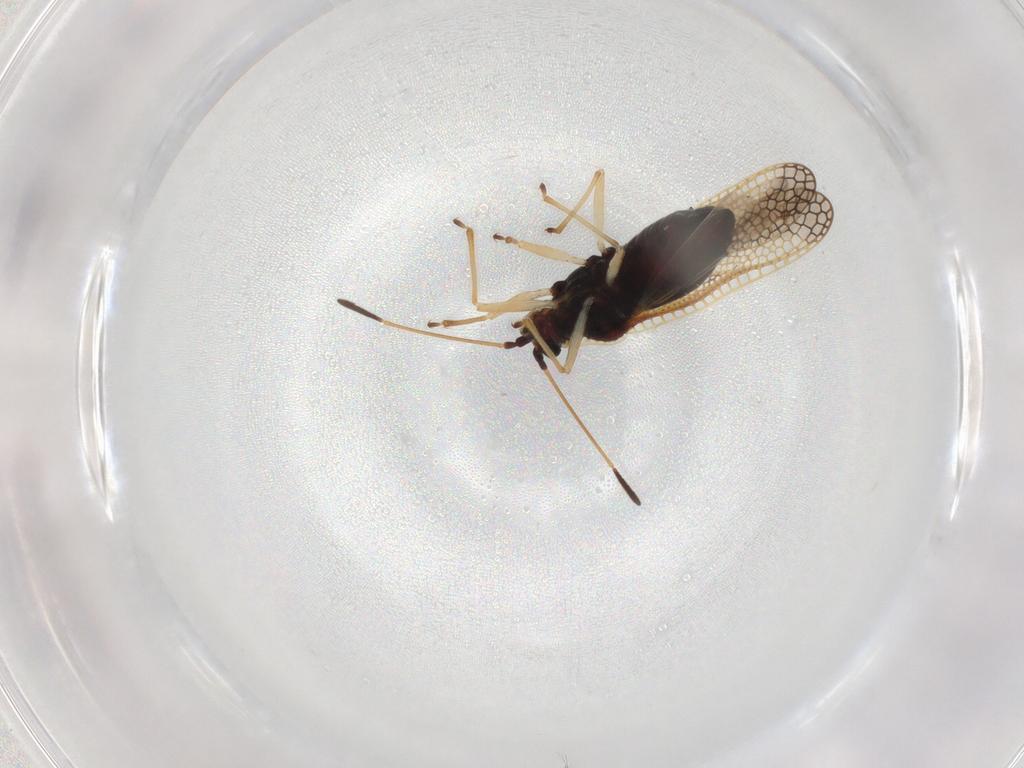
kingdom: Animalia
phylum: Arthropoda
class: Insecta
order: Hemiptera
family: Tingidae
